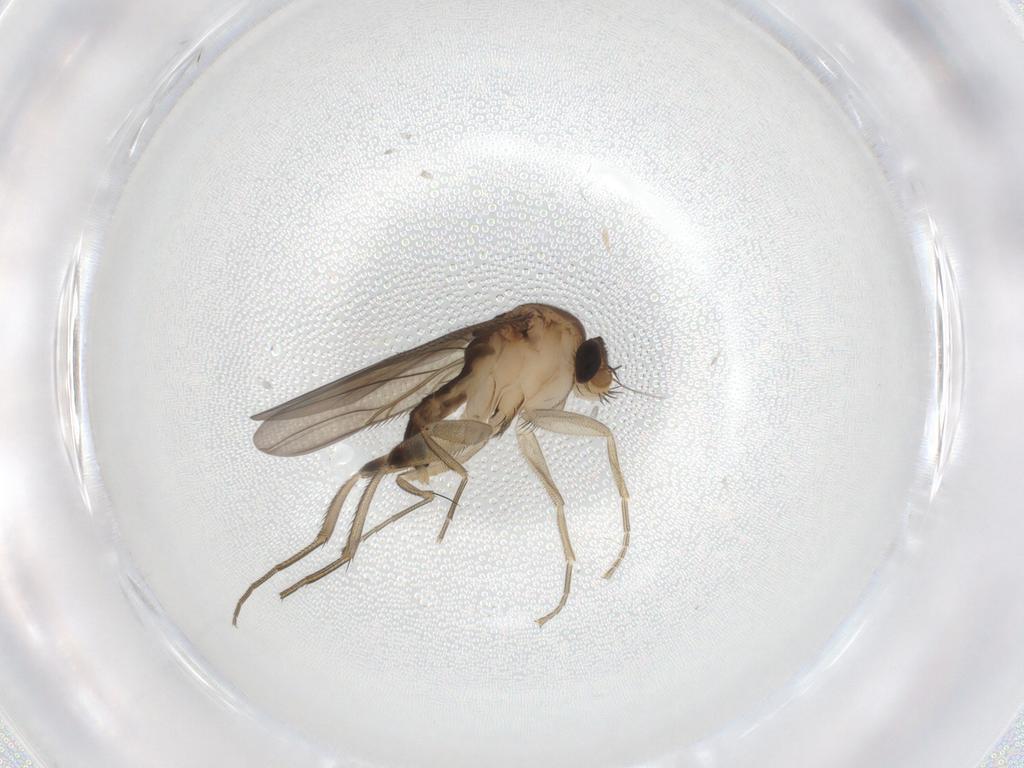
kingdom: Animalia
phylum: Arthropoda
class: Insecta
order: Diptera
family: Phoridae
